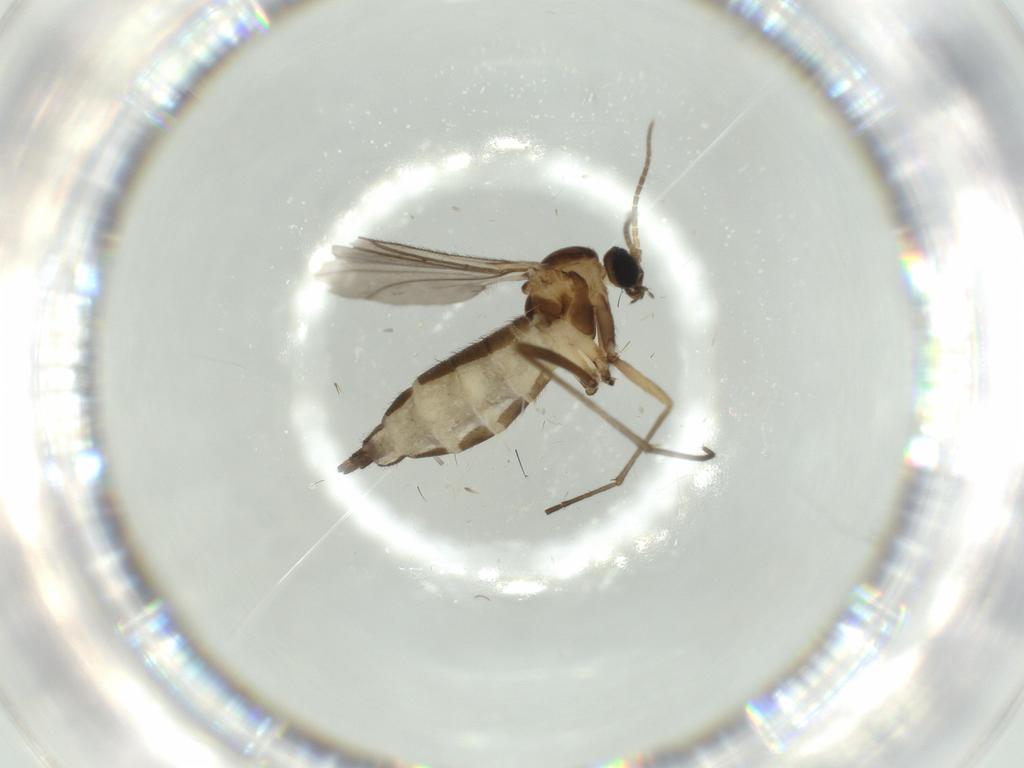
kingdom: Animalia
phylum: Arthropoda
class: Insecta
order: Diptera
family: Sciaridae
